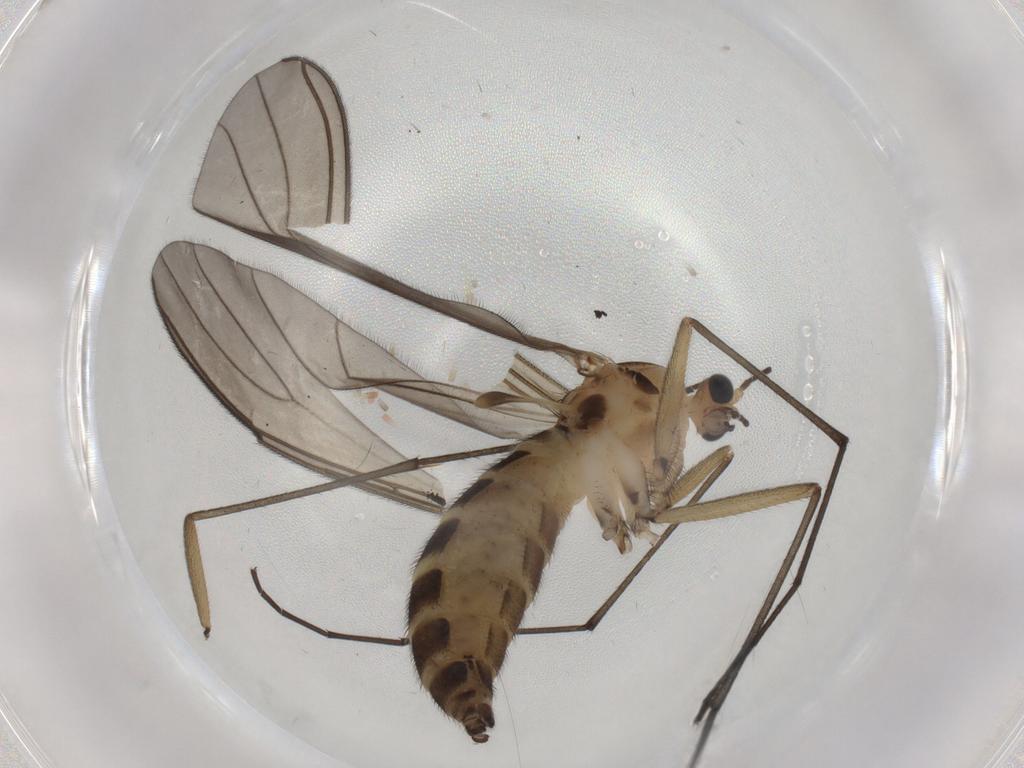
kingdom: Animalia
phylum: Arthropoda
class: Insecta
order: Diptera
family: Sciaridae
